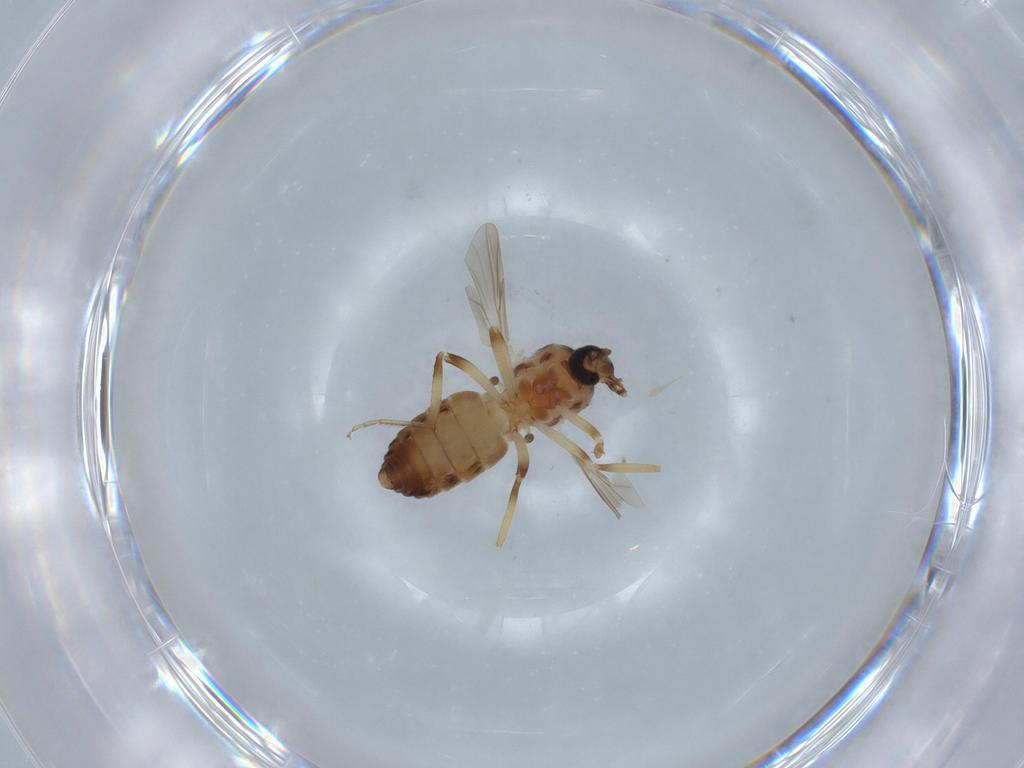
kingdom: Animalia
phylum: Arthropoda
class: Insecta
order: Diptera
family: Ceratopogonidae
